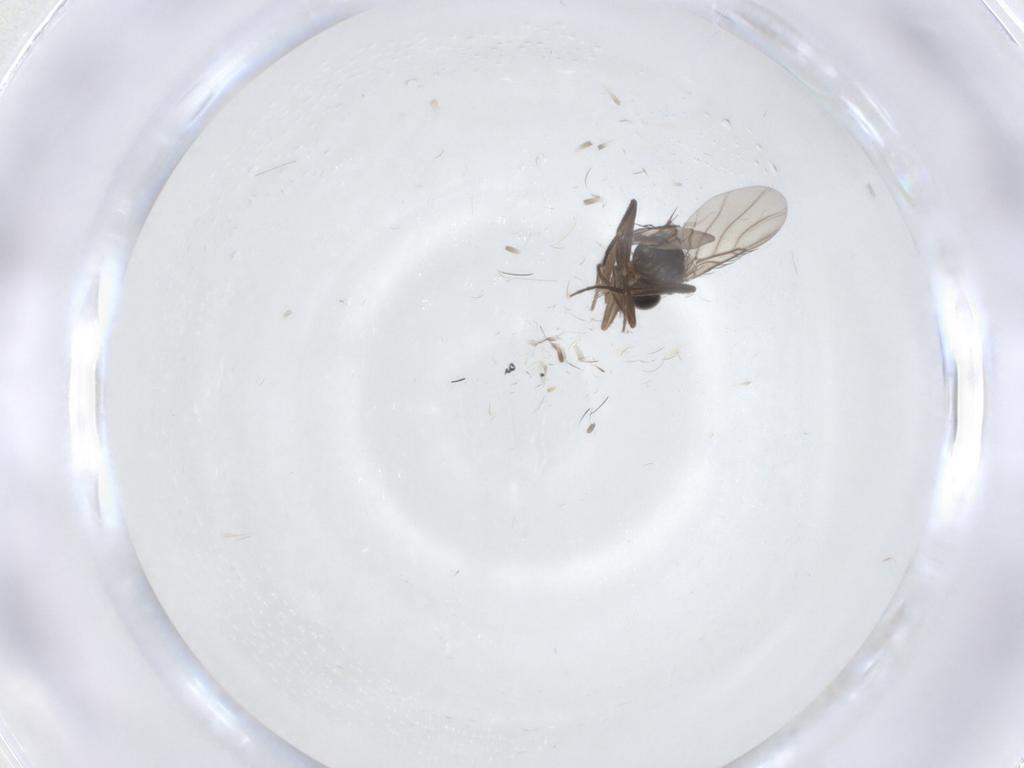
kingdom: Animalia
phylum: Arthropoda
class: Insecta
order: Diptera
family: Phoridae
